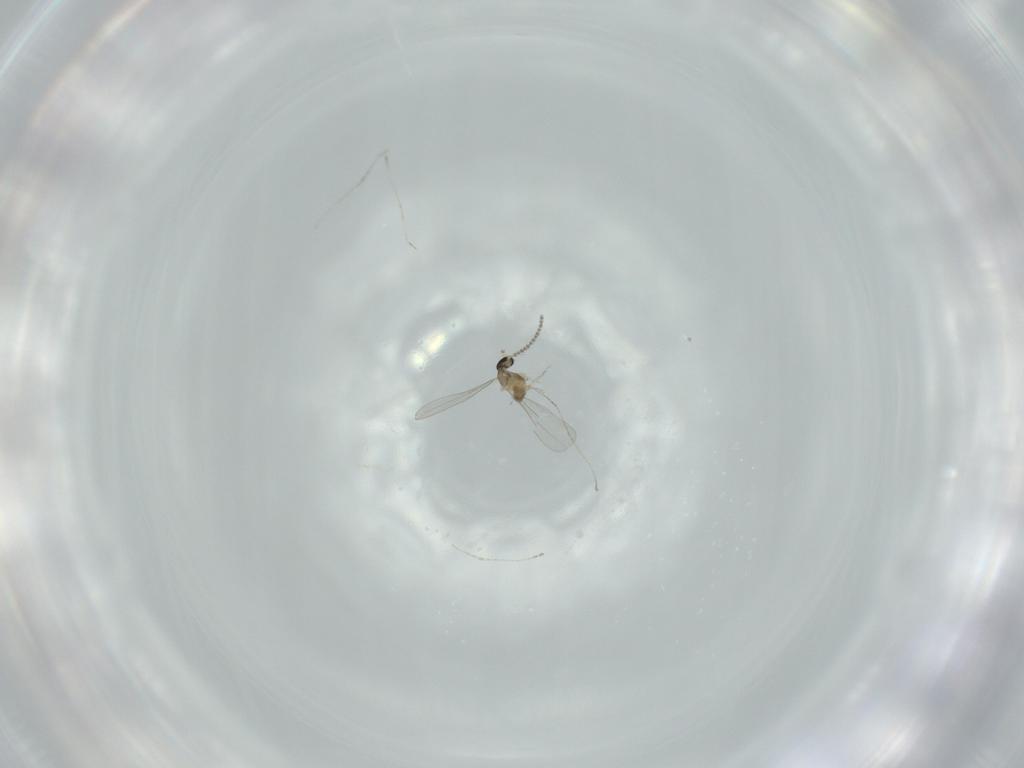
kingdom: Animalia
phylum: Arthropoda
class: Insecta
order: Diptera
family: Cecidomyiidae
